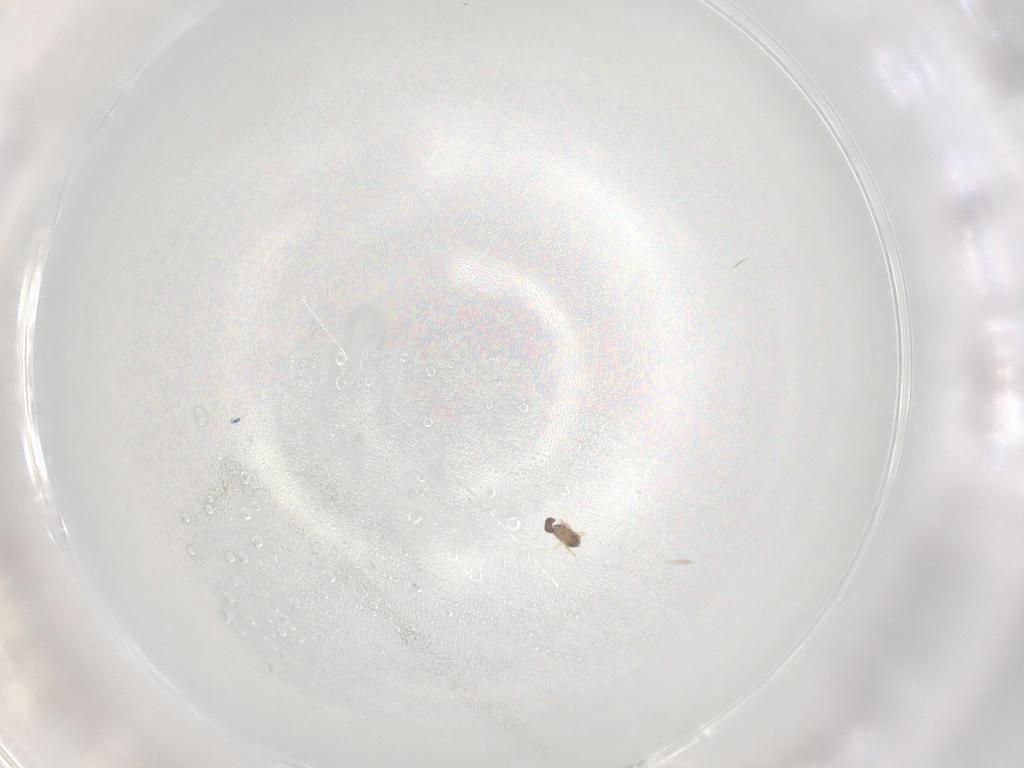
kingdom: Animalia
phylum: Arthropoda
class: Insecta
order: Hymenoptera
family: Mymaridae
